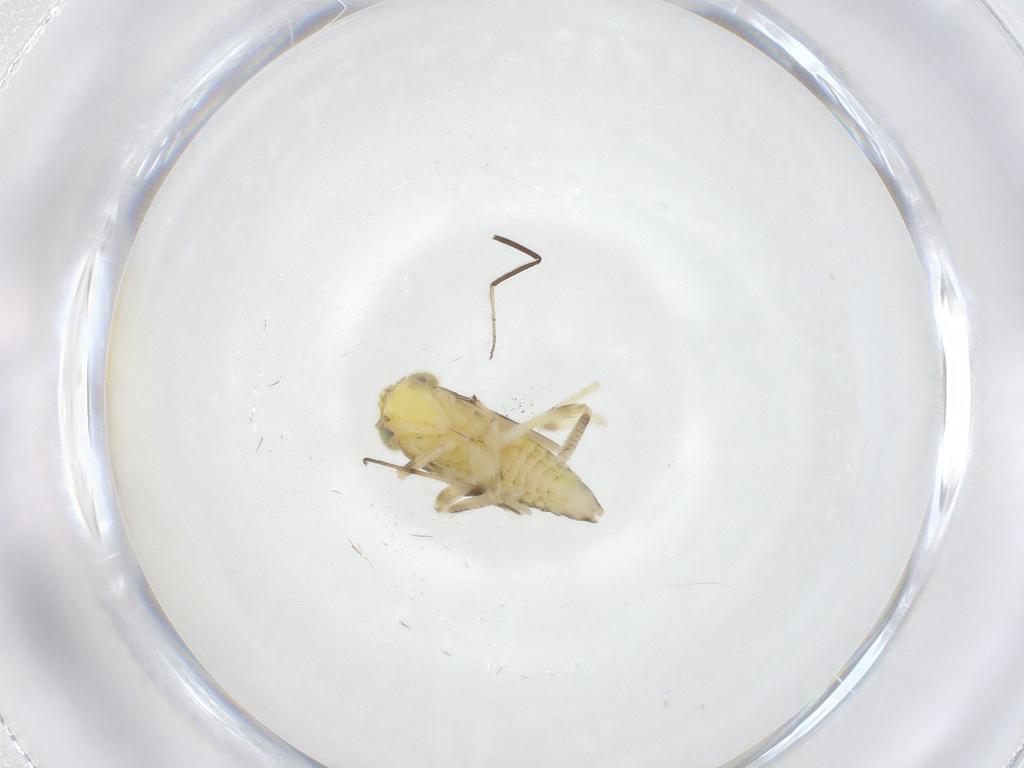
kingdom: Animalia
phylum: Arthropoda
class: Insecta
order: Hemiptera
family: Cicadellidae
